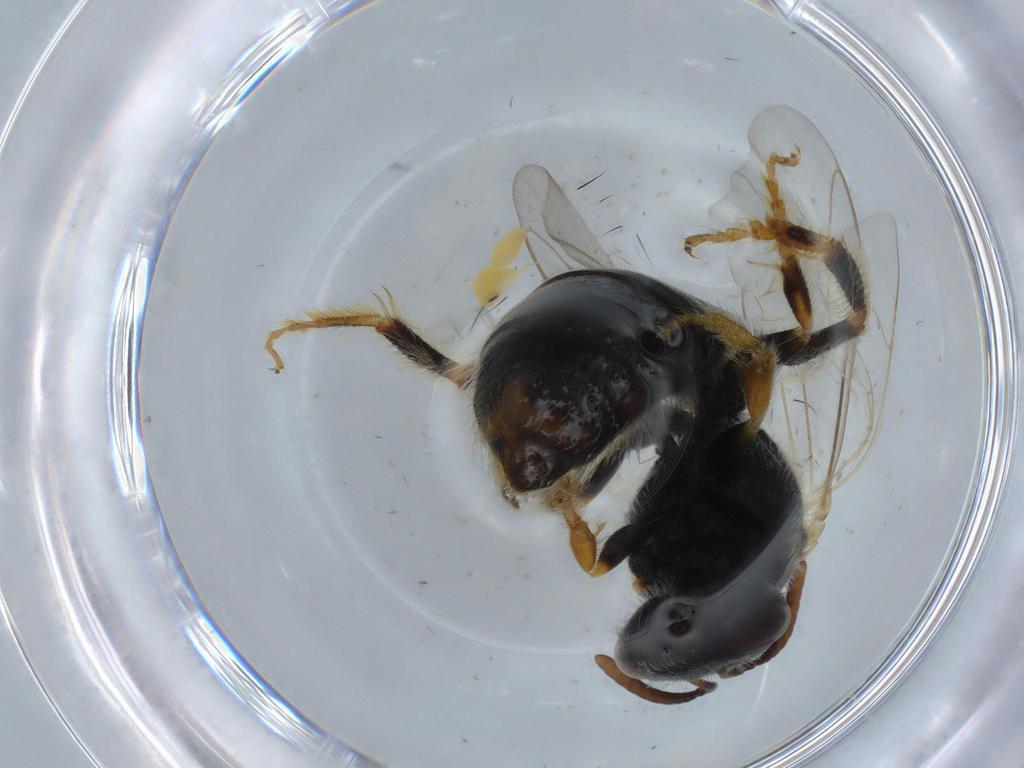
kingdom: Animalia
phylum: Arthropoda
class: Insecta
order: Hymenoptera
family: Halictidae
